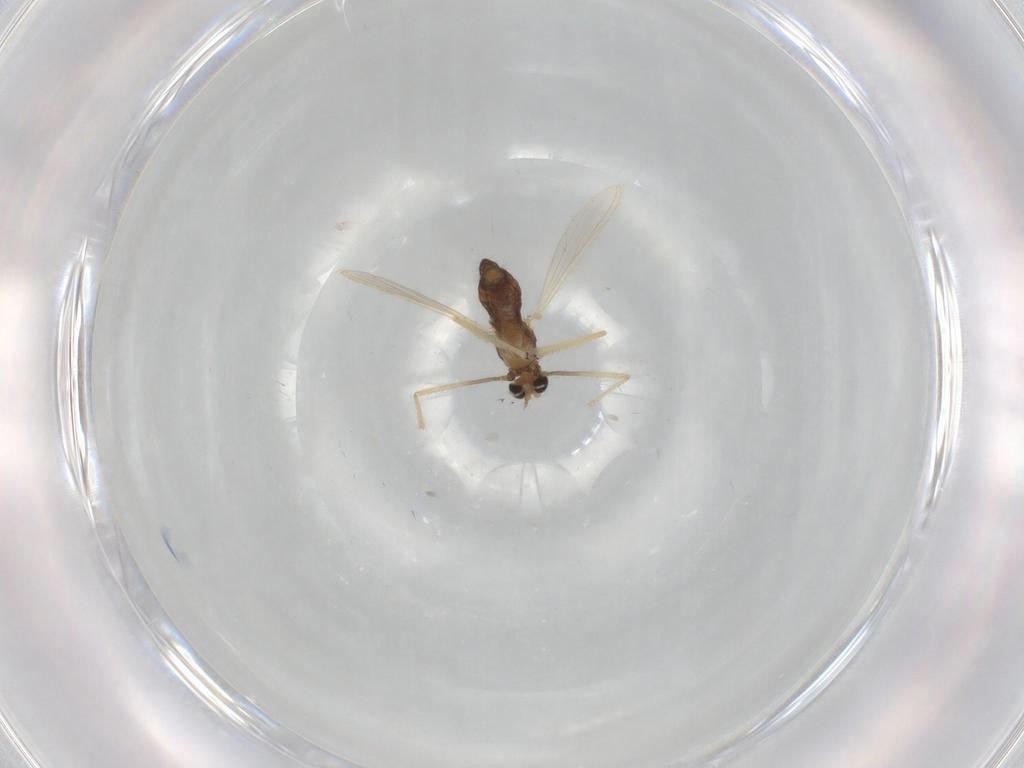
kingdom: Animalia
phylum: Arthropoda
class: Insecta
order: Diptera
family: Chironomidae
